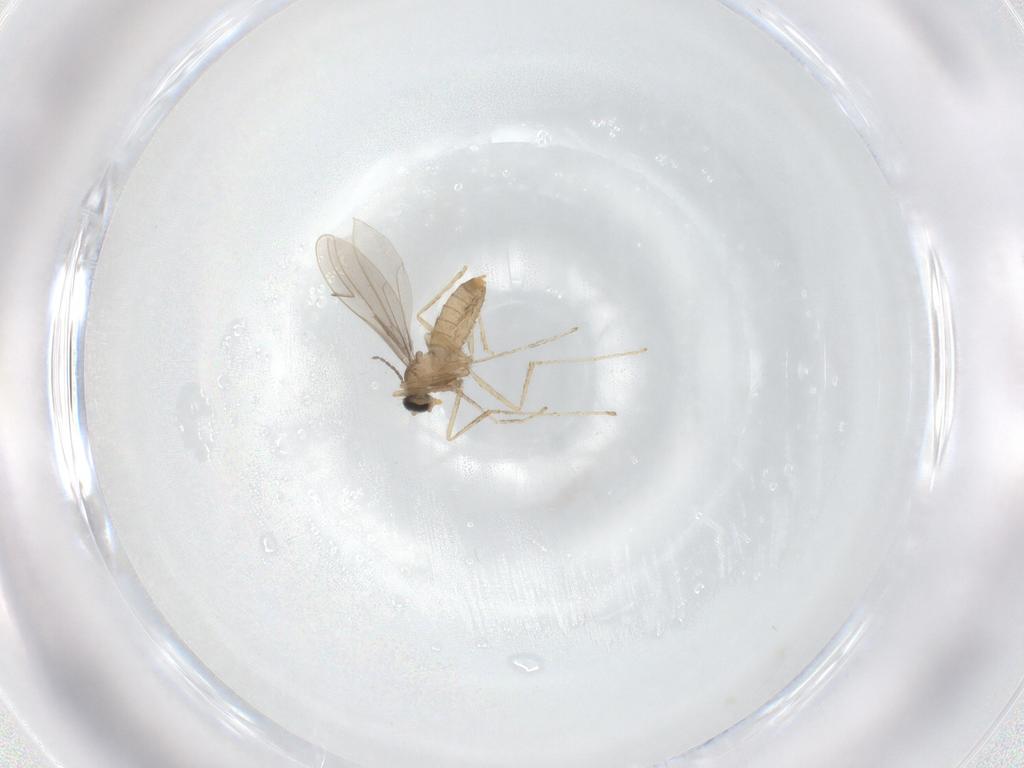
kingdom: Animalia
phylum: Arthropoda
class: Insecta
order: Diptera
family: Cecidomyiidae
